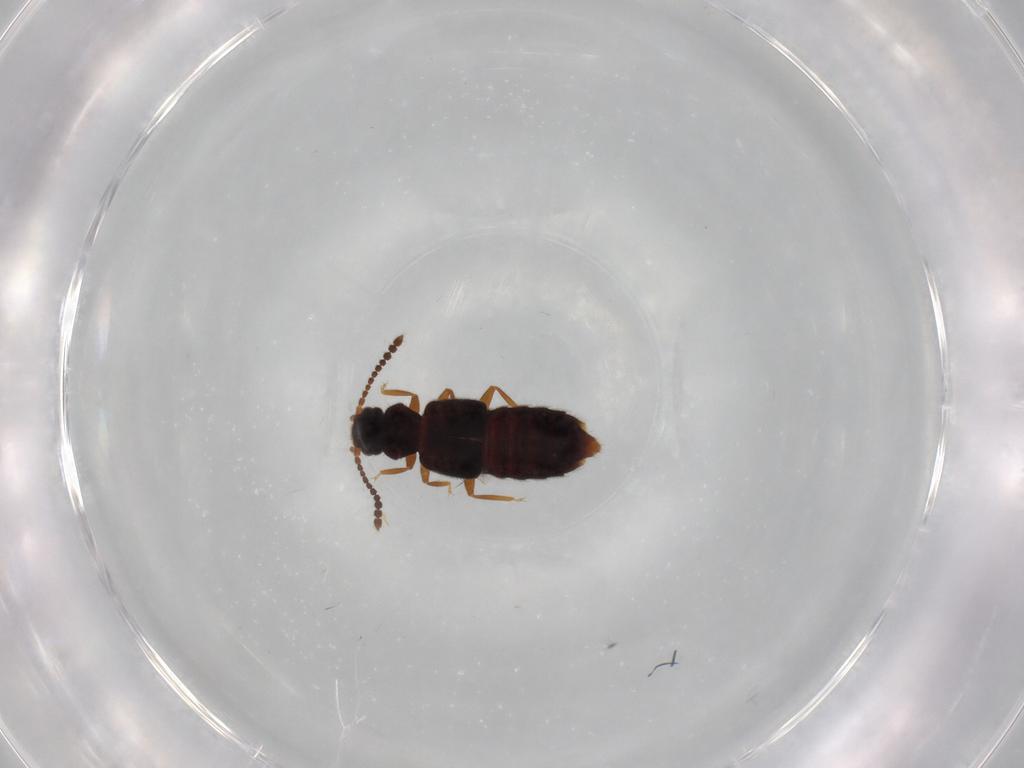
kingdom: Animalia
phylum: Arthropoda
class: Insecta
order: Coleoptera
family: Staphylinidae
